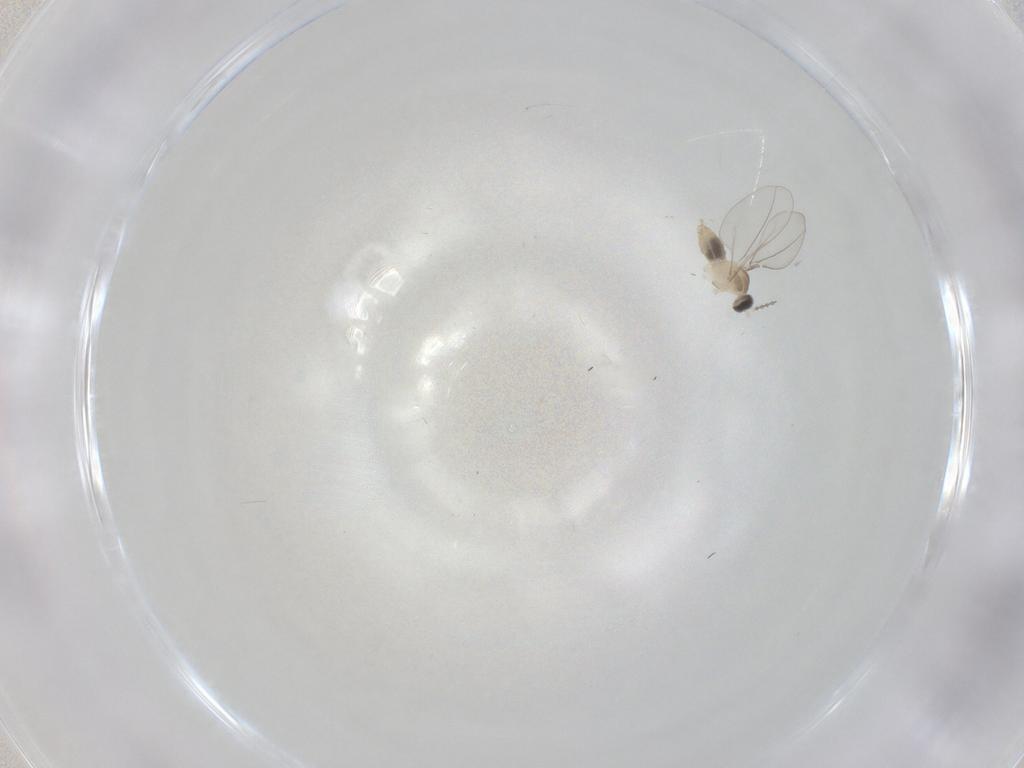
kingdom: Animalia
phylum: Arthropoda
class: Insecta
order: Diptera
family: Cecidomyiidae
